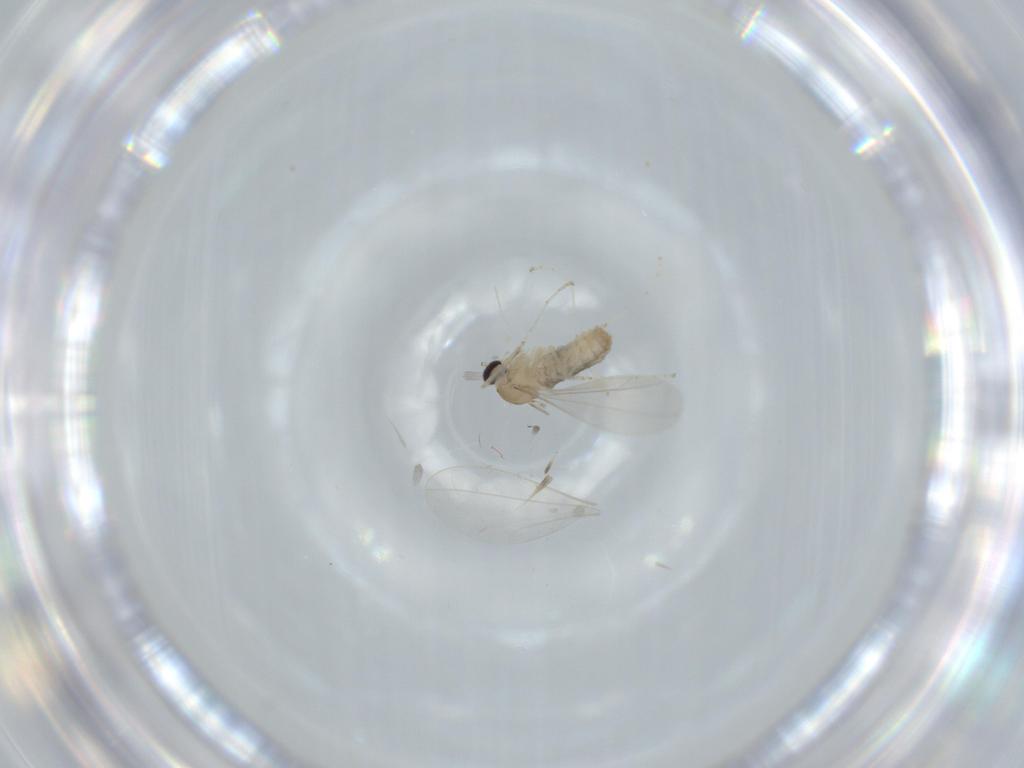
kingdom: Animalia
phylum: Arthropoda
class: Insecta
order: Diptera
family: Cecidomyiidae
